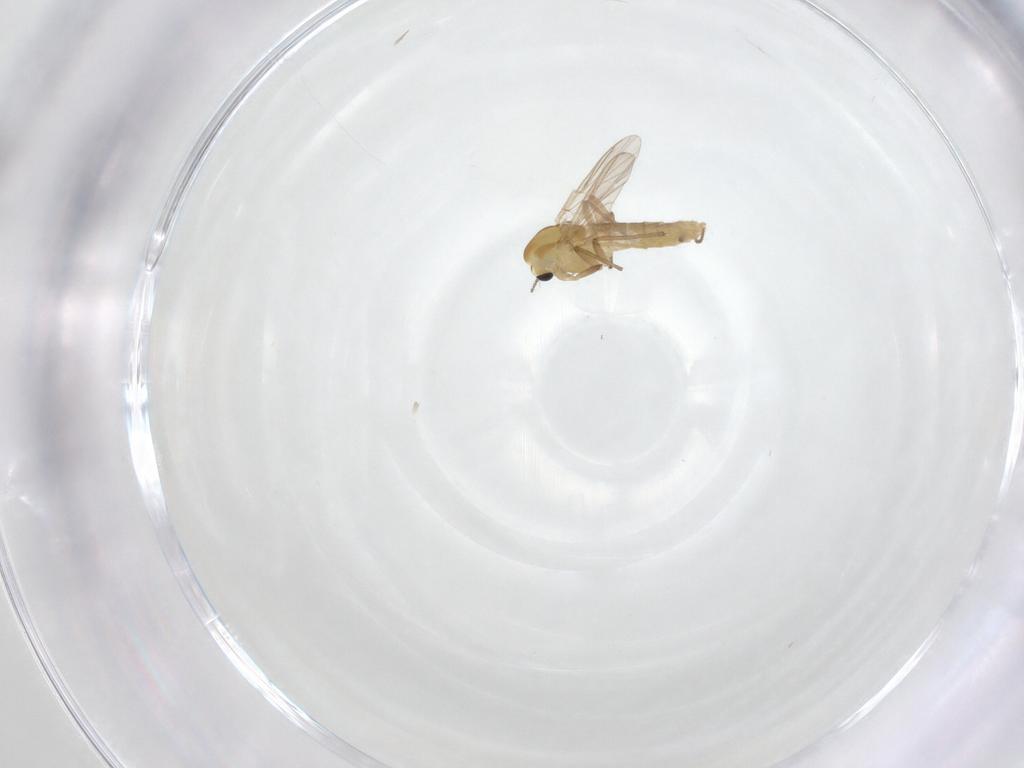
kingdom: Animalia
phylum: Arthropoda
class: Insecta
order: Diptera
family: Chironomidae
